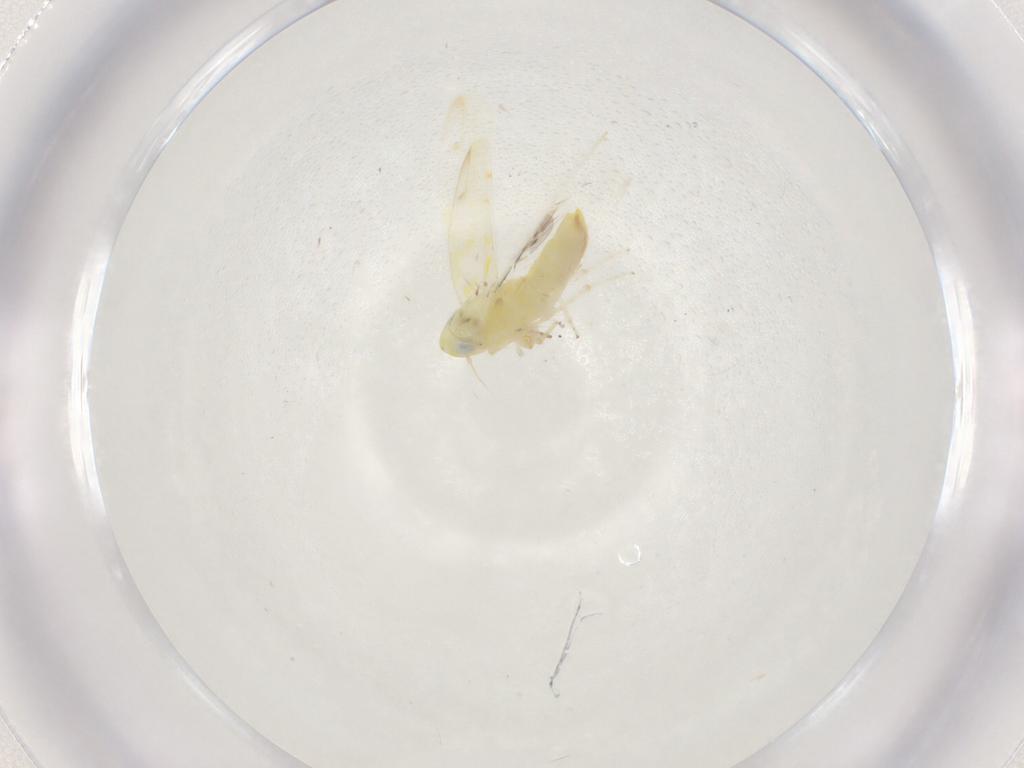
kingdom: Animalia
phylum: Arthropoda
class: Insecta
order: Hemiptera
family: Cicadellidae
